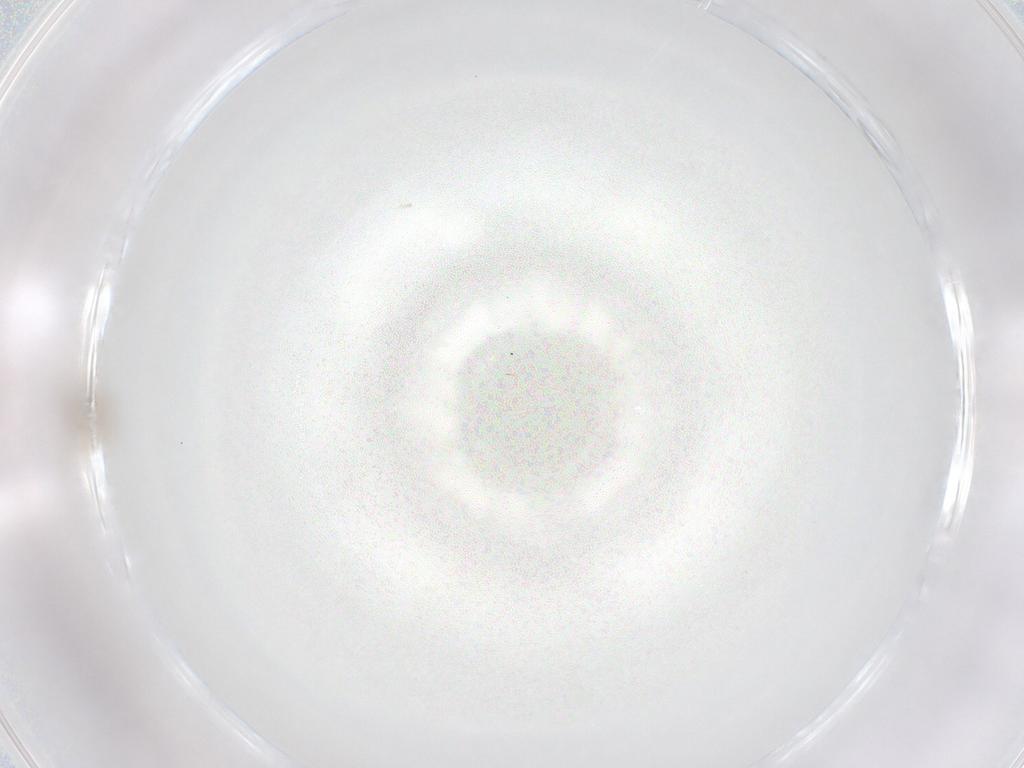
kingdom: Animalia
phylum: Arthropoda
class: Insecta
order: Diptera
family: Cecidomyiidae
